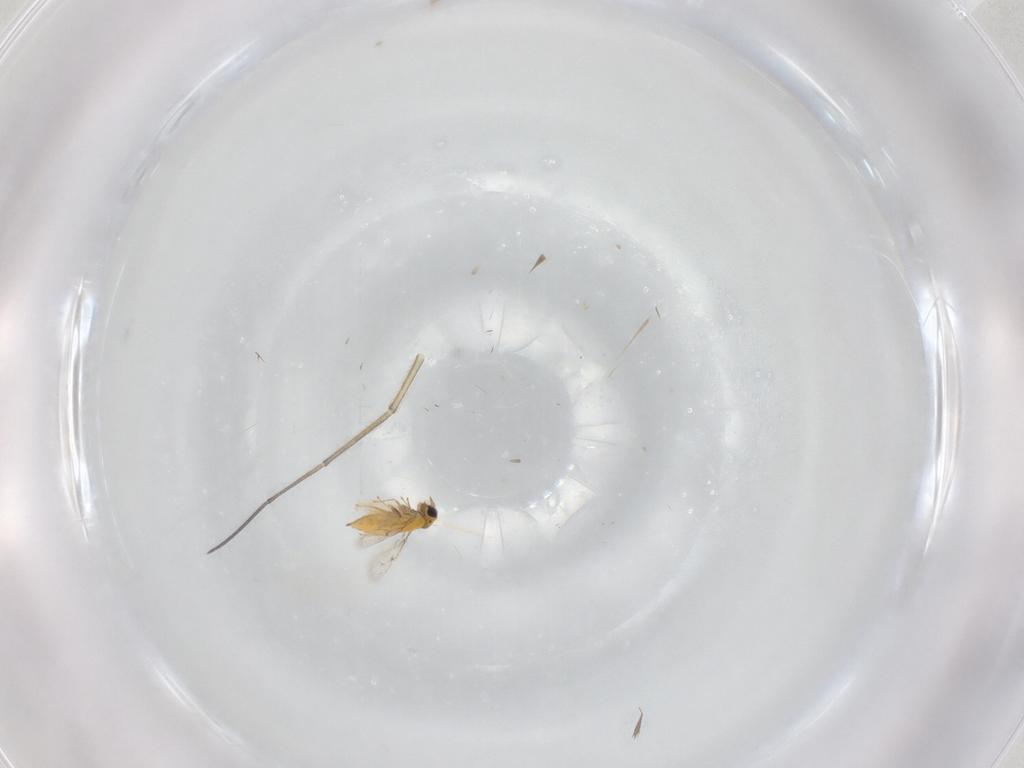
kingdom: Animalia
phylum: Arthropoda
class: Insecta
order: Hymenoptera
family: Trichogrammatidae
